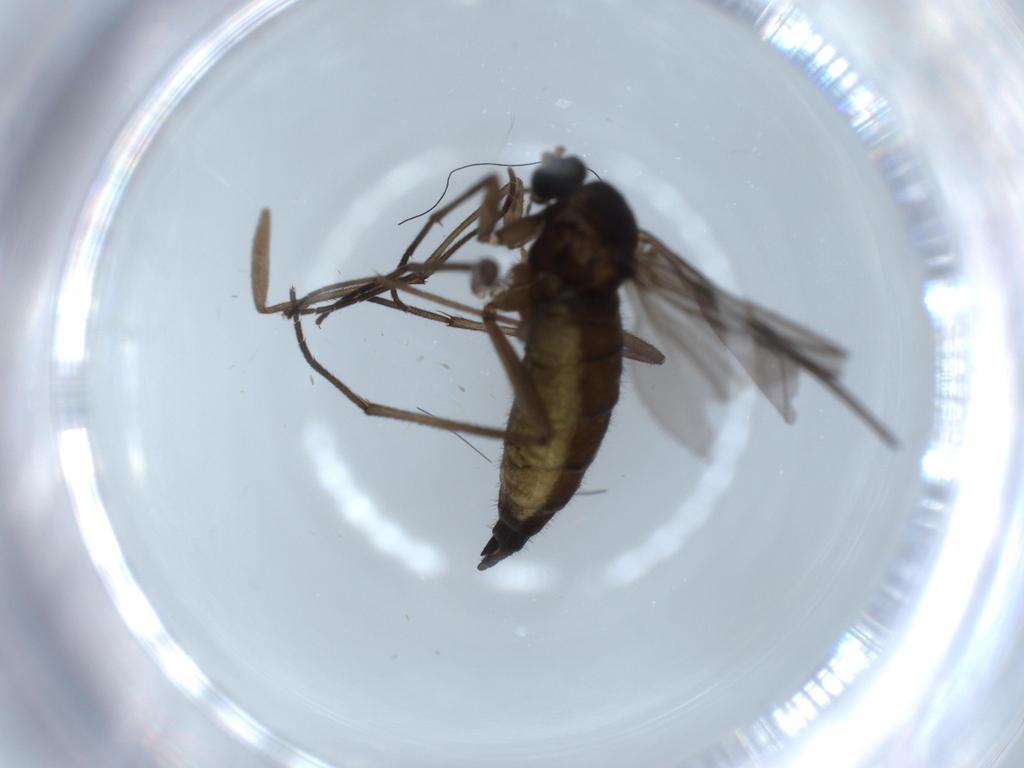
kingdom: Animalia
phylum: Arthropoda
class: Insecta
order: Diptera
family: Sciaridae
